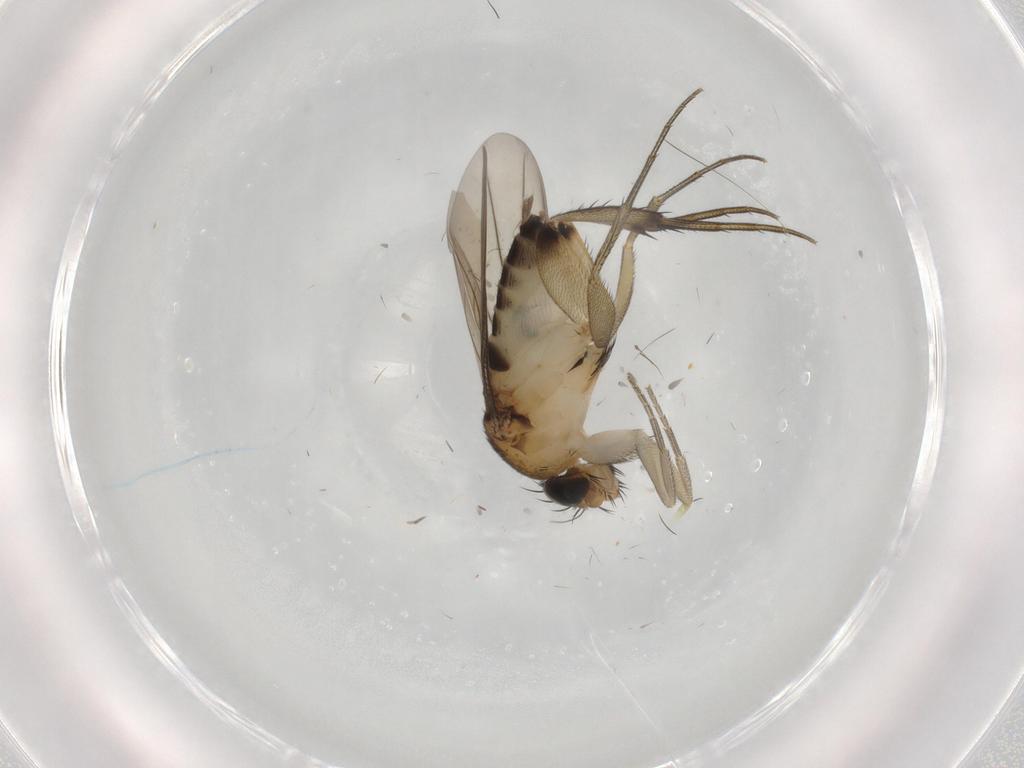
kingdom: Animalia
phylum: Arthropoda
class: Insecta
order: Diptera
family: Phoridae
